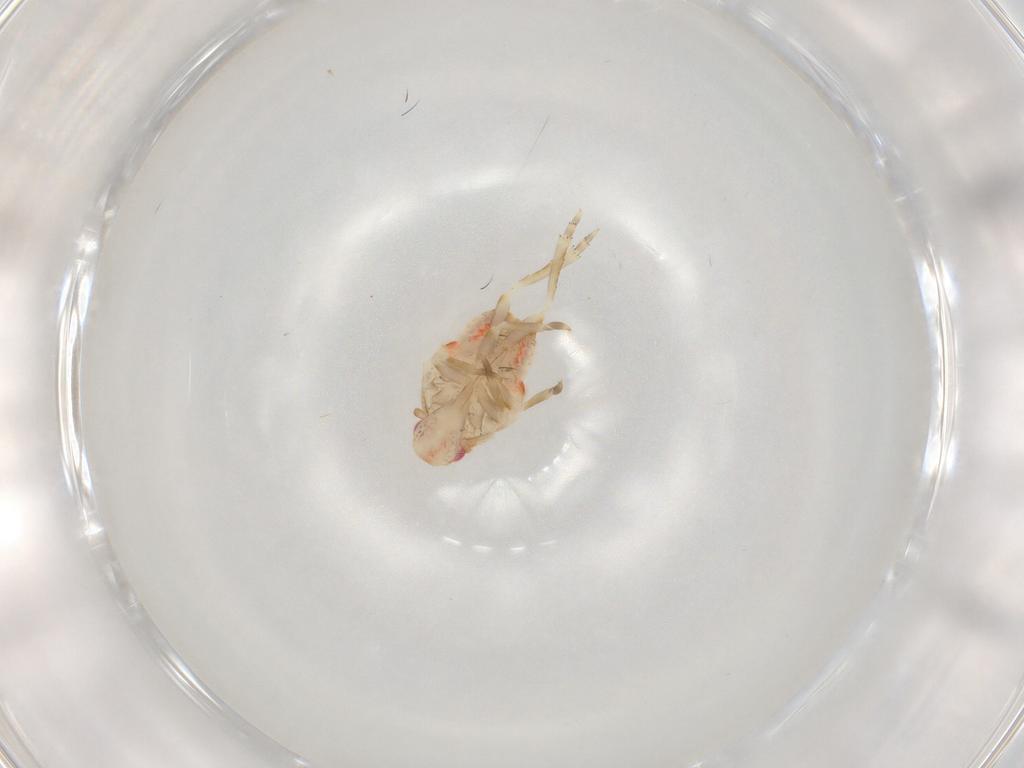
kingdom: Animalia
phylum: Arthropoda
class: Insecta
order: Hemiptera
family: Flatidae
